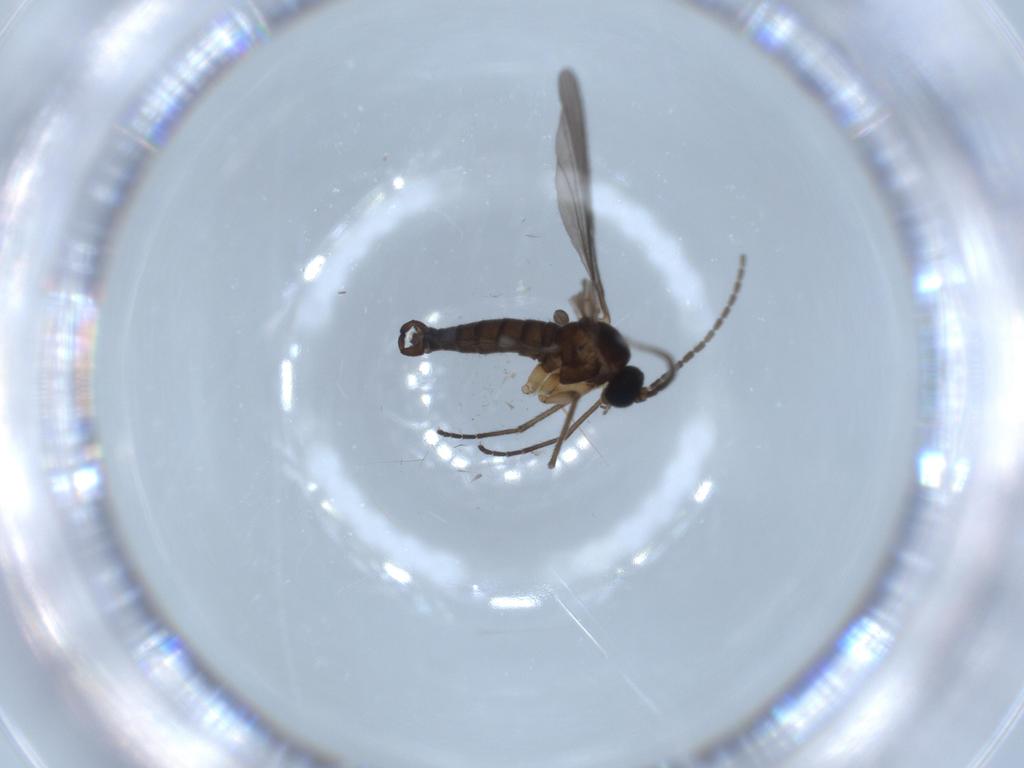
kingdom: Animalia
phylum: Arthropoda
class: Insecta
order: Diptera
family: Sciaridae
